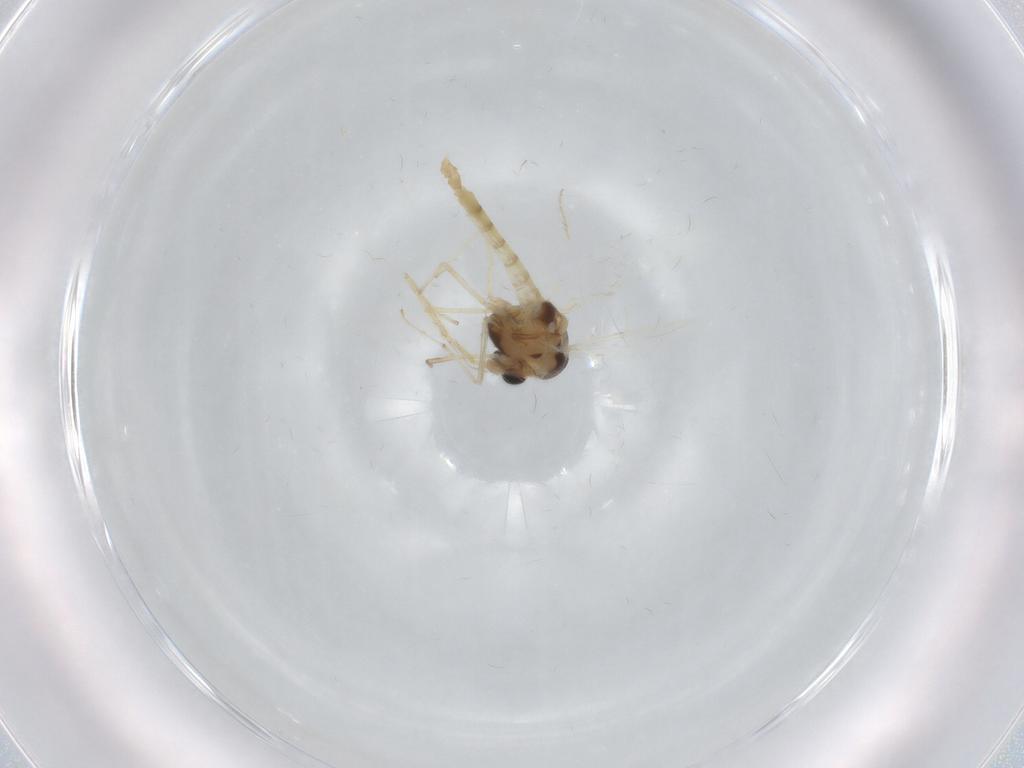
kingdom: Animalia
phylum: Arthropoda
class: Insecta
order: Diptera
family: Chironomidae
